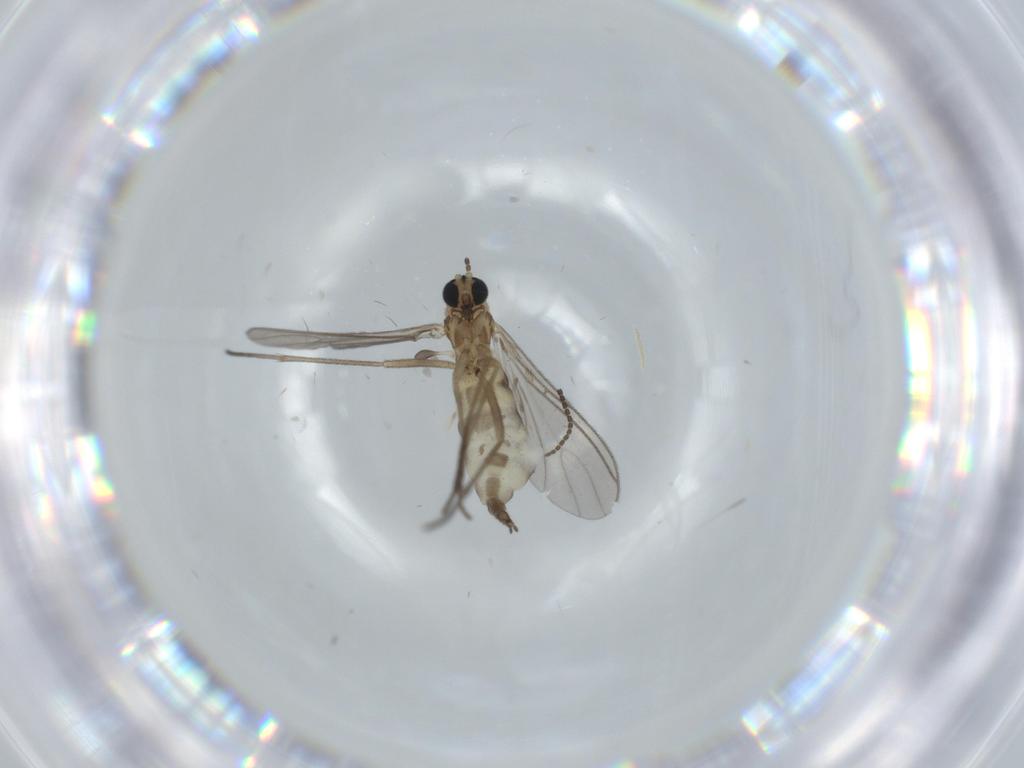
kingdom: Animalia
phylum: Arthropoda
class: Insecta
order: Diptera
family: Sciaridae
